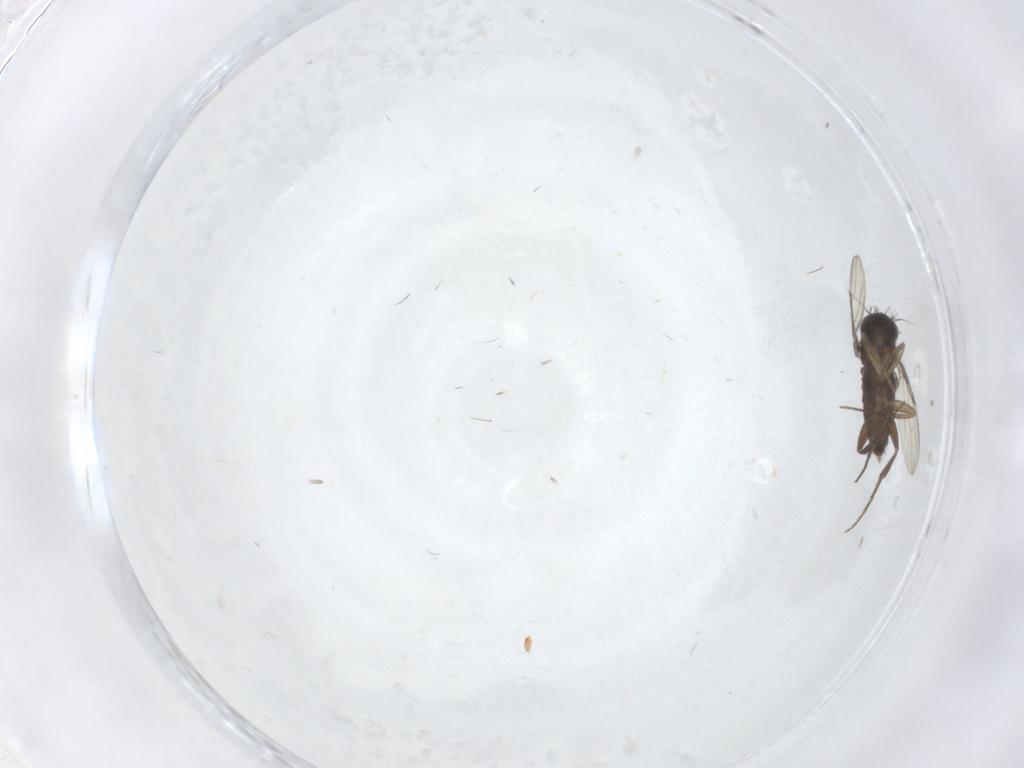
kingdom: Animalia
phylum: Arthropoda
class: Insecta
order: Diptera
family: Phoridae
